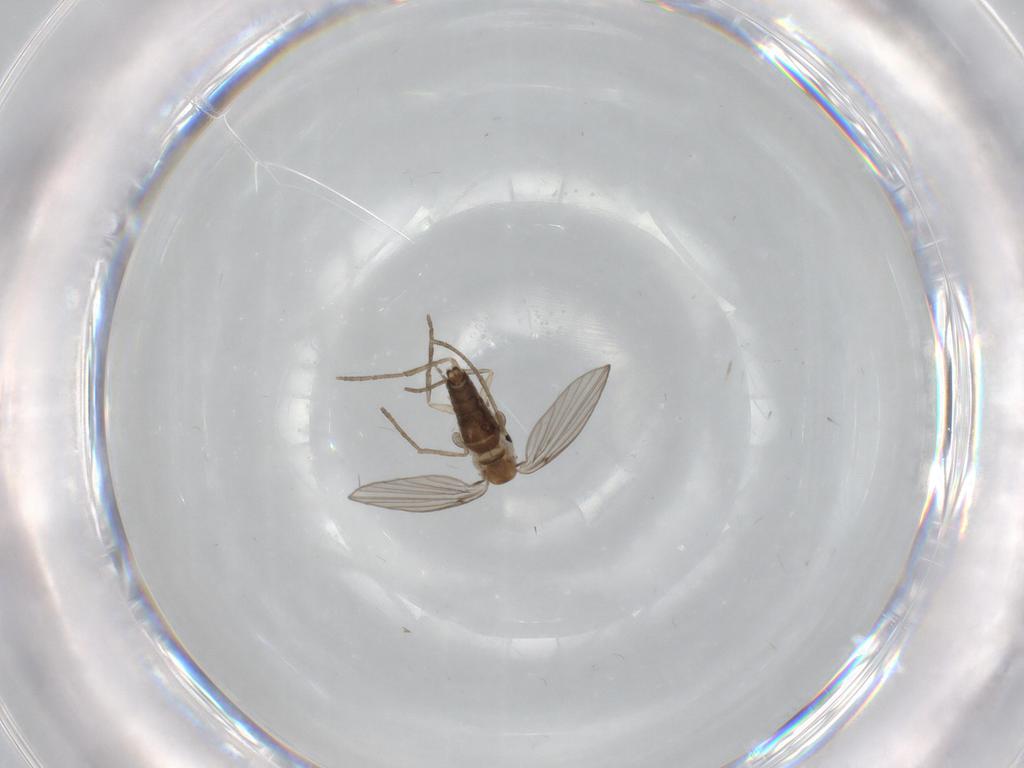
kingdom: Animalia
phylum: Arthropoda
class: Insecta
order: Diptera
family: Psychodidae
